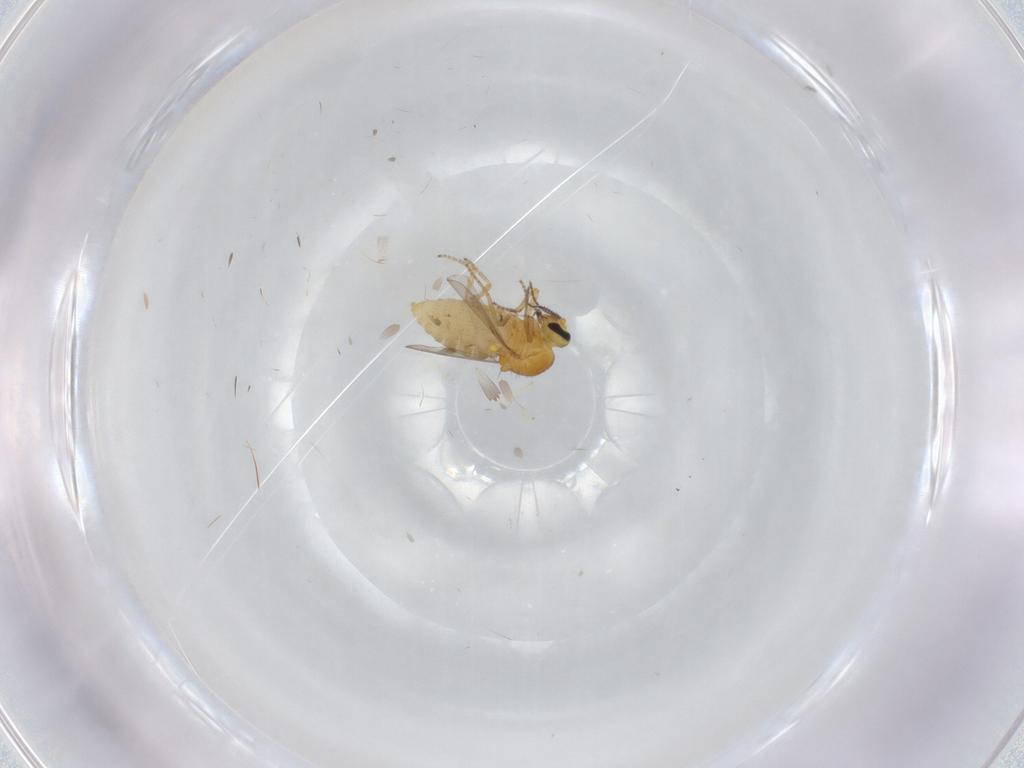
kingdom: Animalia
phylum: Arthropoda
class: Insecta
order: Diptera
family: Ceratopogonidae
